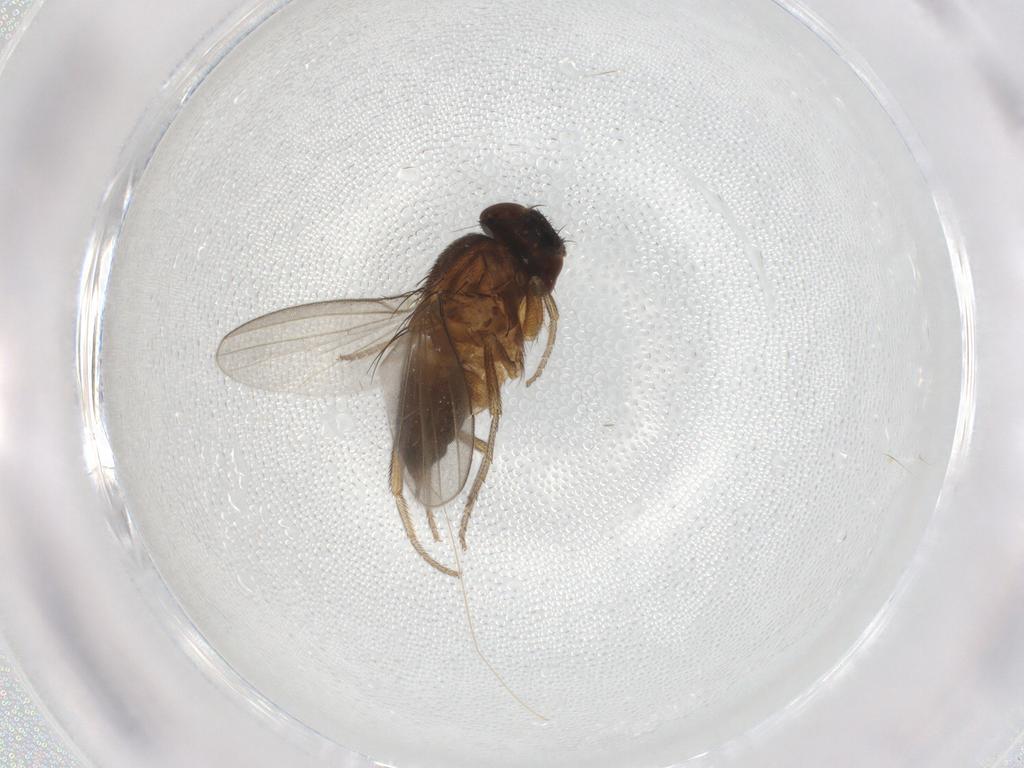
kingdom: Animalia
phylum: Arthropoda
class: Insecta
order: Diptera
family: Milichiidae
